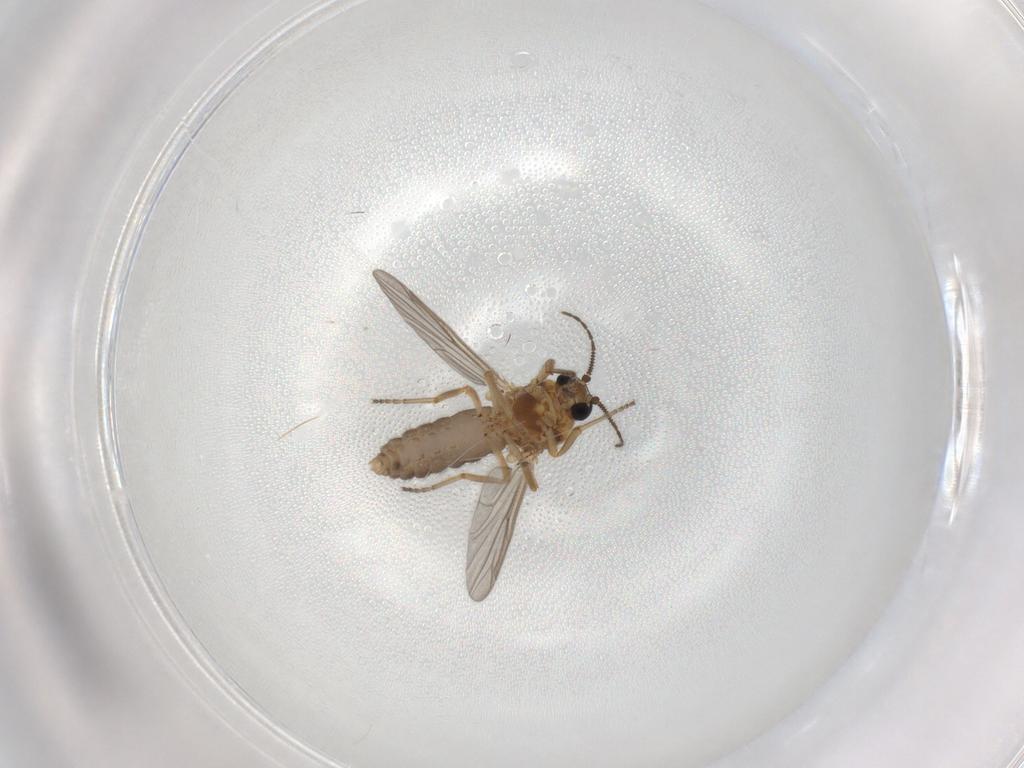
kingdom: Animalia
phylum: Arthropoda
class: Insecta
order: Diptera
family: Ceratopogonidae
